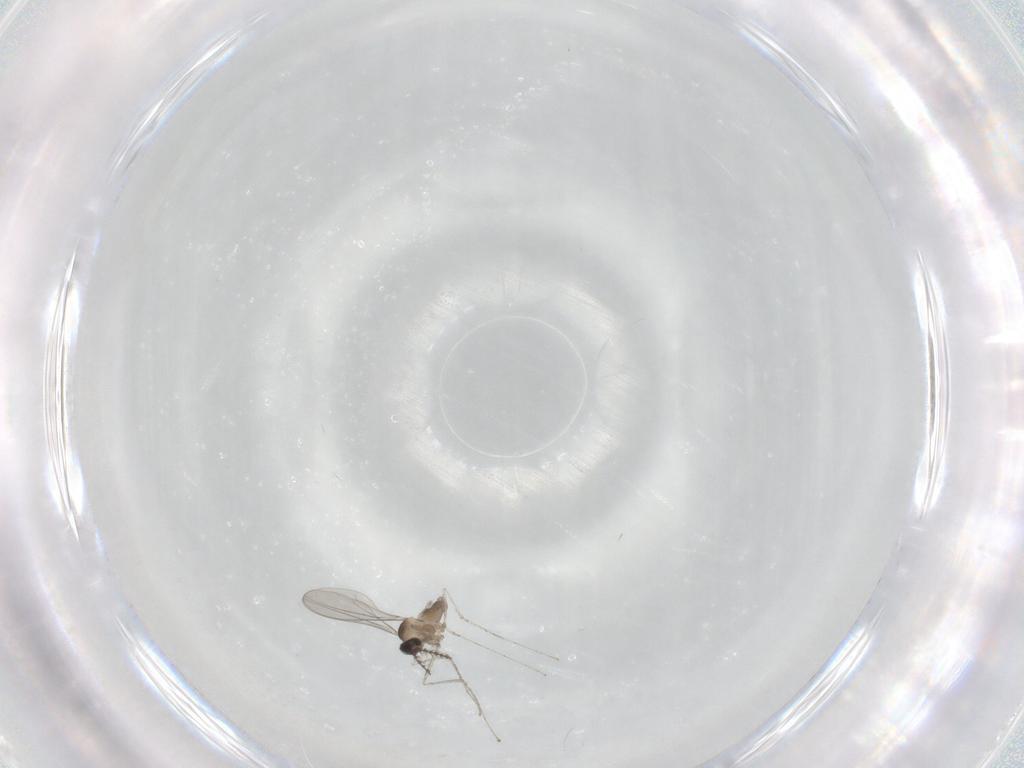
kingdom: Animalia
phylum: Arthropoda
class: Insecta
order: Diptera
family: Cecidomyiidae
